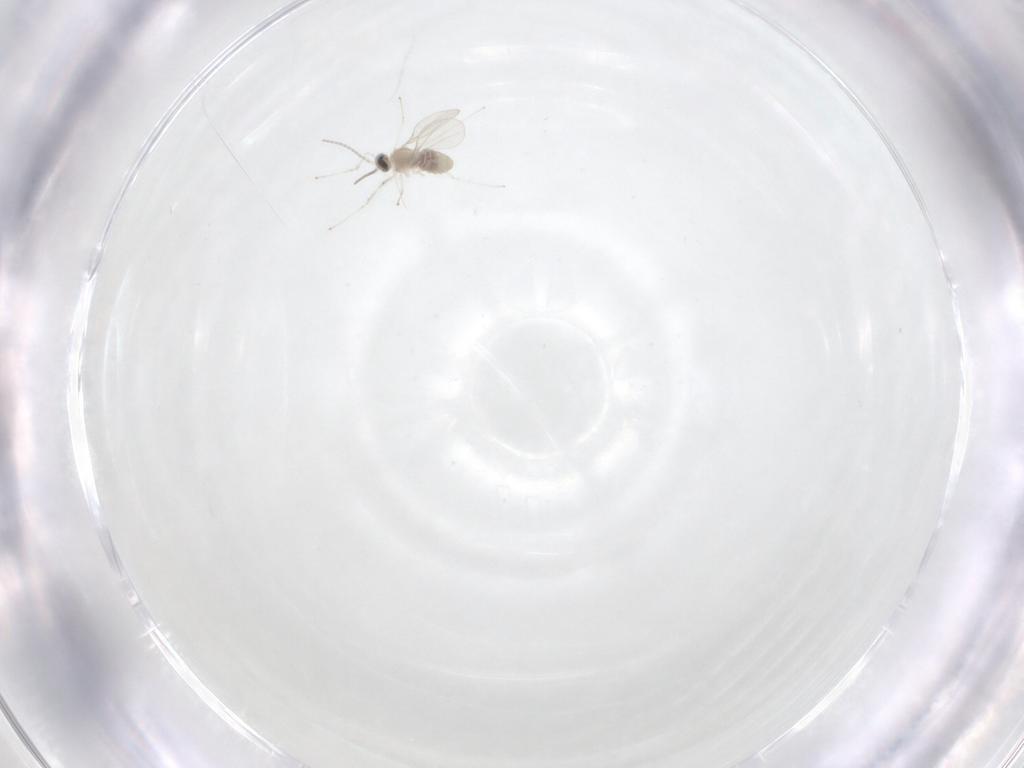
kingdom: Animalia
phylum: Arthropoda
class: Insecta
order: Diptera
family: Cecidomyiidae
